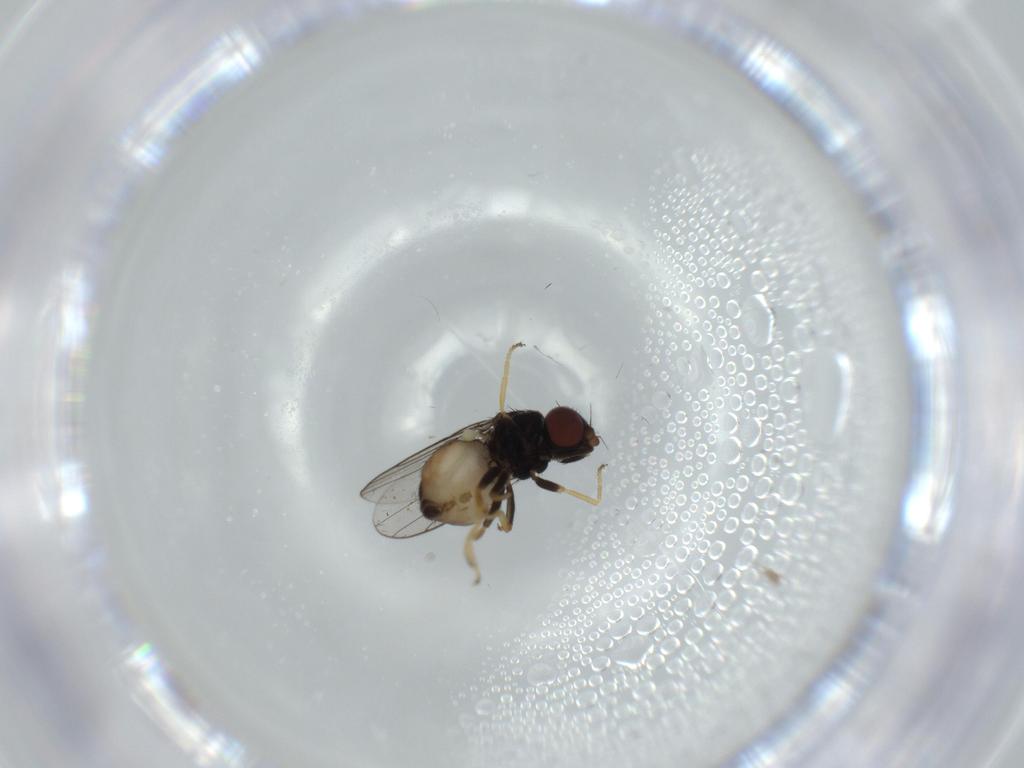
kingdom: Animalia
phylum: Arthropoda
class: Insecta
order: Diptera
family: Chloropidae
